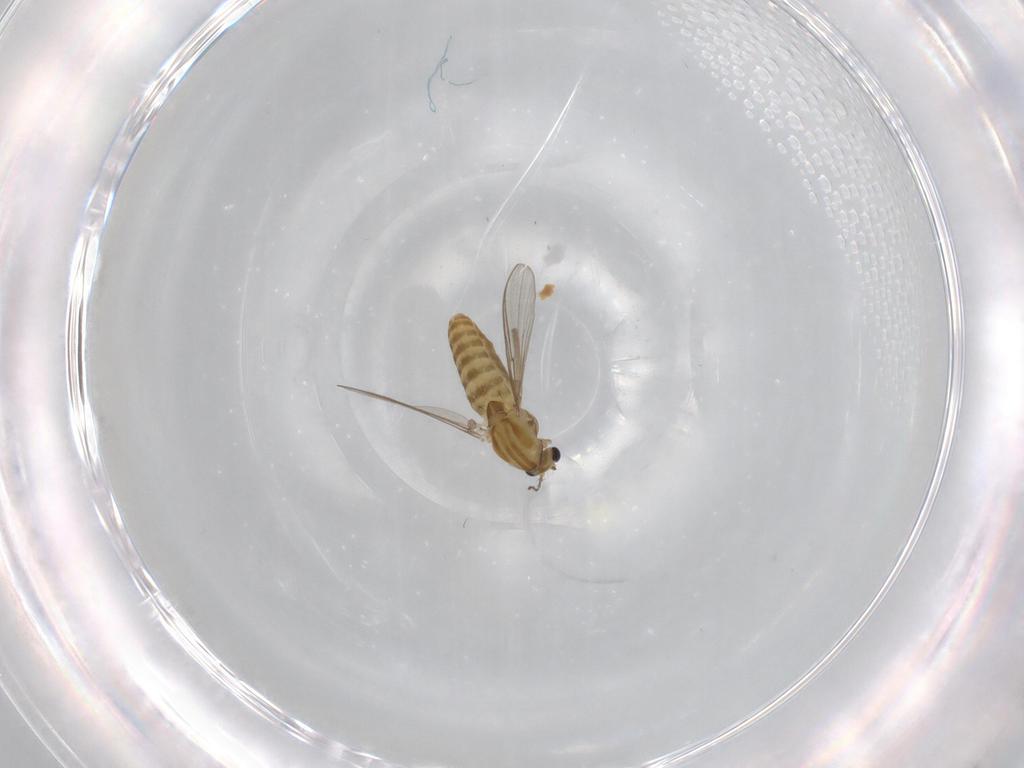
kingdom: Animalia
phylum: Arthropoda
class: Insecta
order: Diptera
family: Chironomidae
